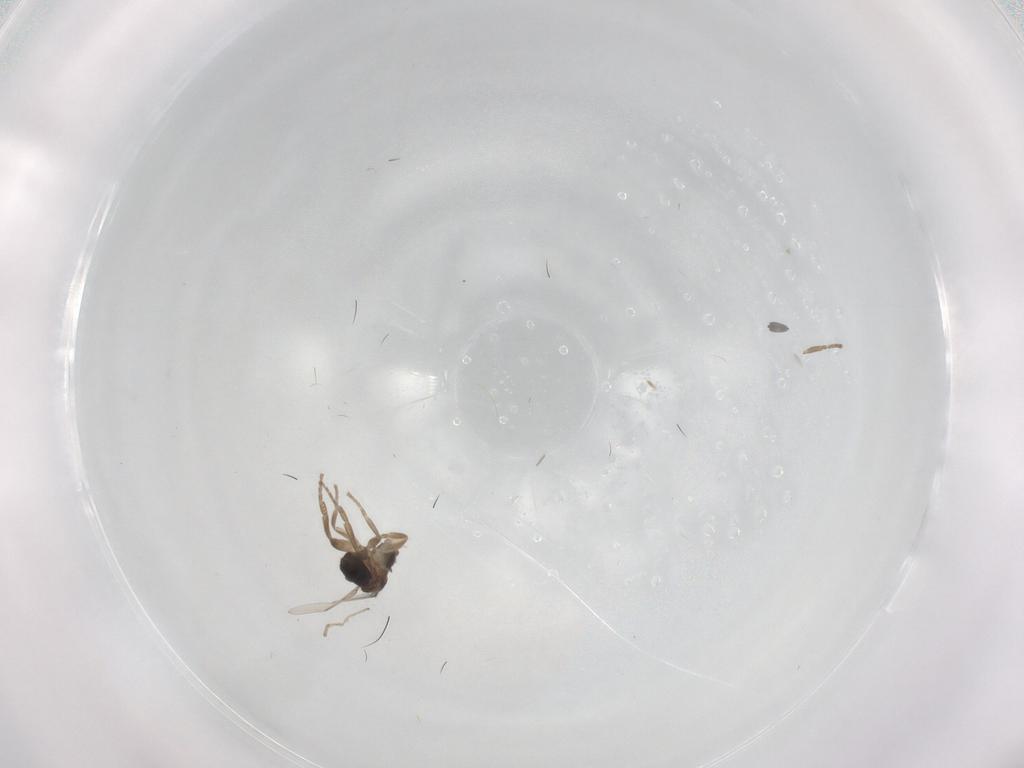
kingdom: Animalia
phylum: Arthropoda
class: Insecta
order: Diptera
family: Phoridae
